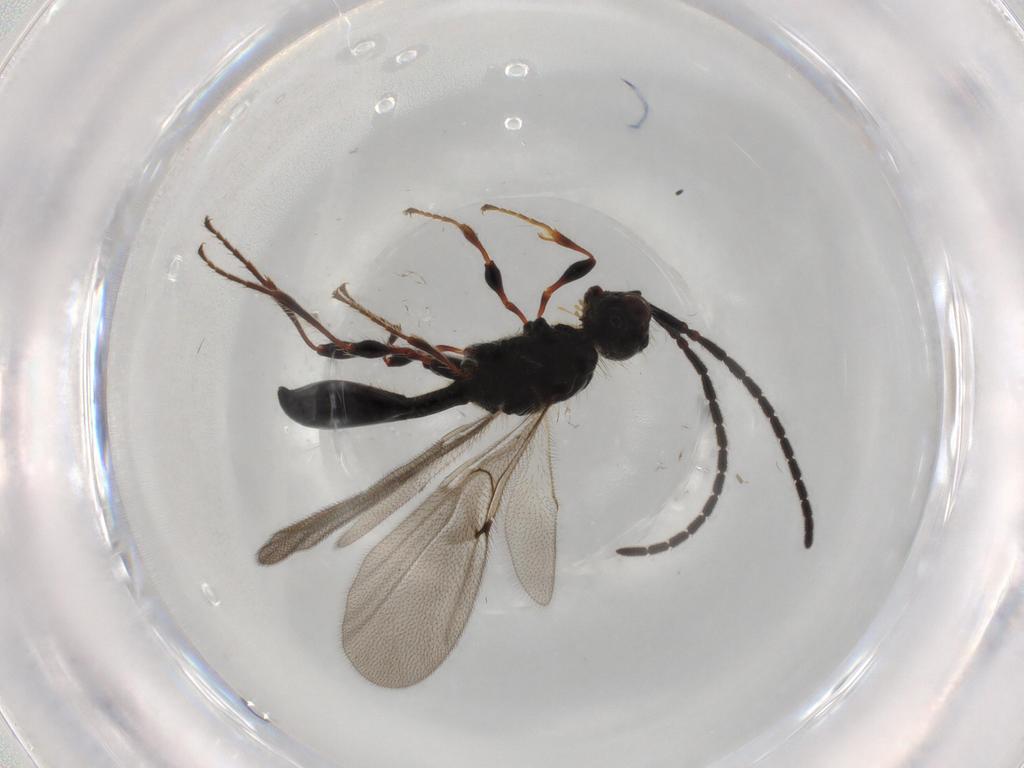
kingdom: Animalia
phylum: Arthropoda
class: Insecta
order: Hymenoptera
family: Diapriidae
